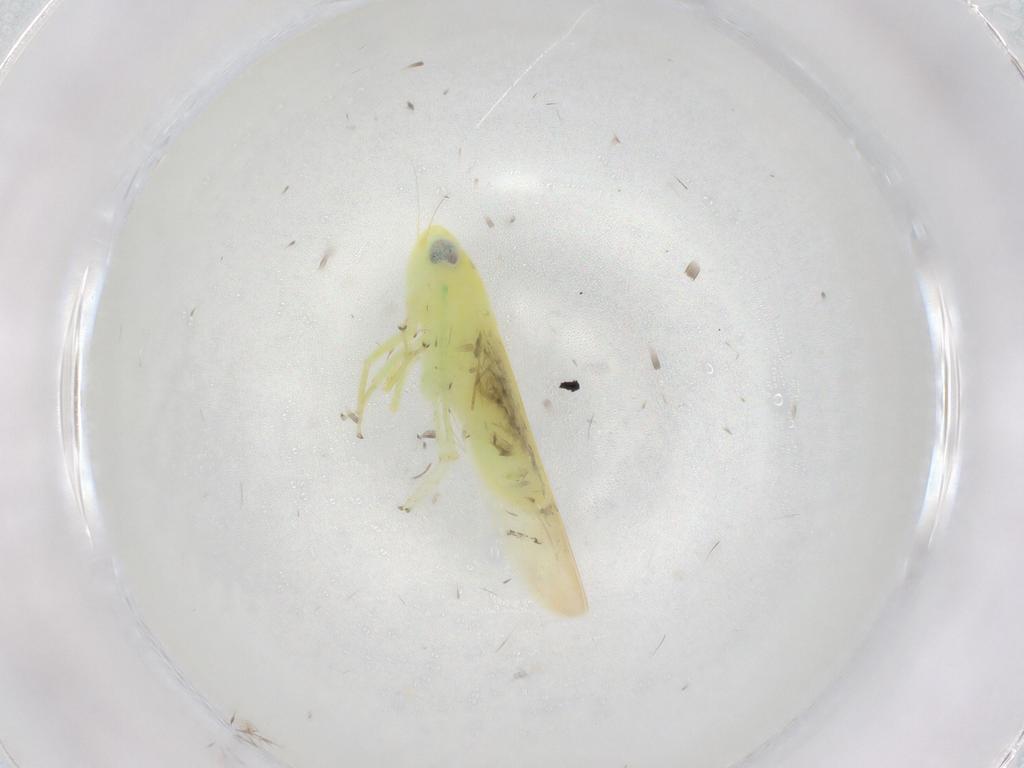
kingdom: Animalia
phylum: Arthropoda
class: Insecta
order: Hemiptera
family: Cicadellidae
